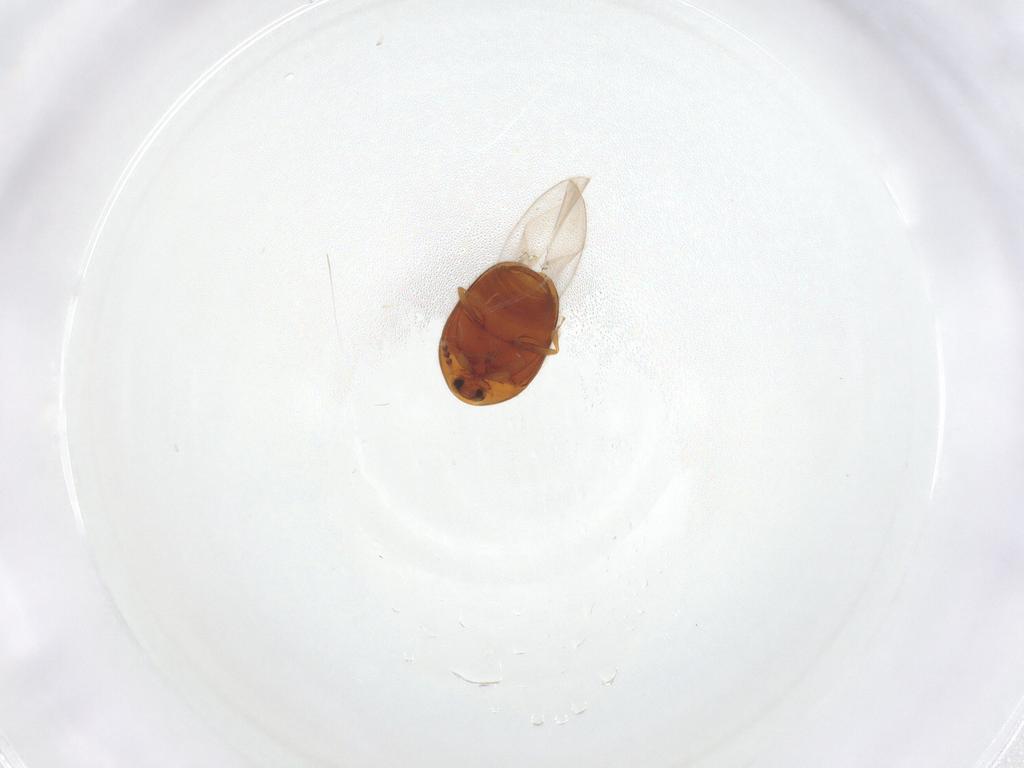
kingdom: Animalia
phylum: Arthropoda
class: Insecta
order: Coleoptera
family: Corylophidae
